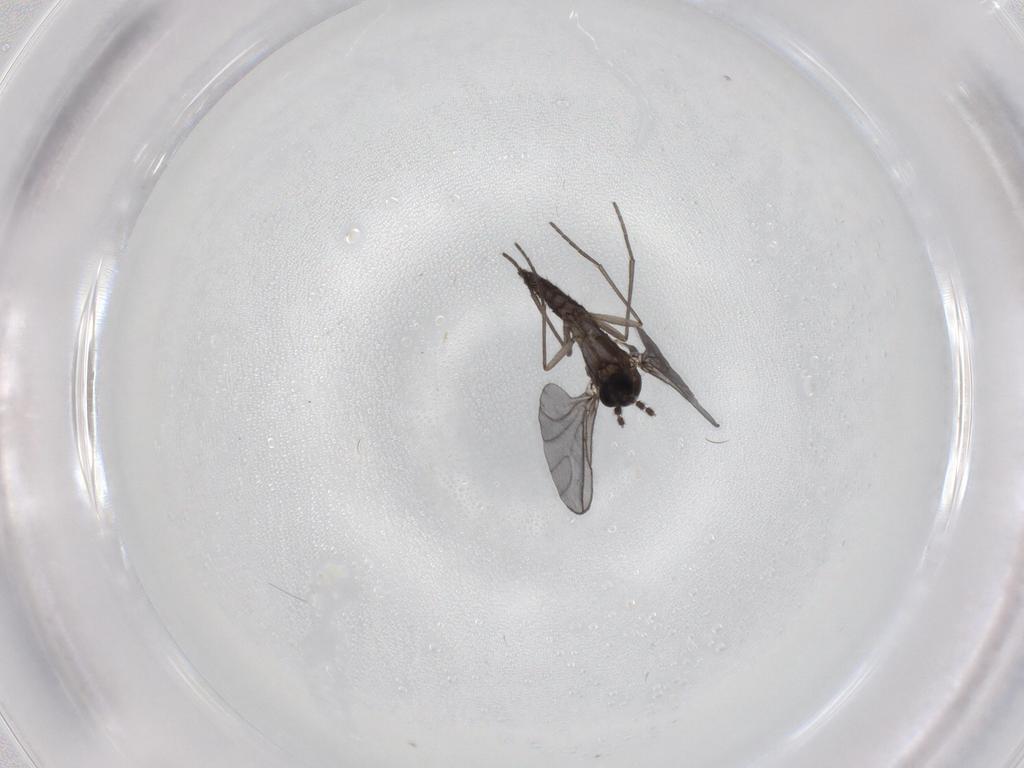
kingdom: Animalia
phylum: Arthropoda
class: Insecta
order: Diptera
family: Sciaridae
